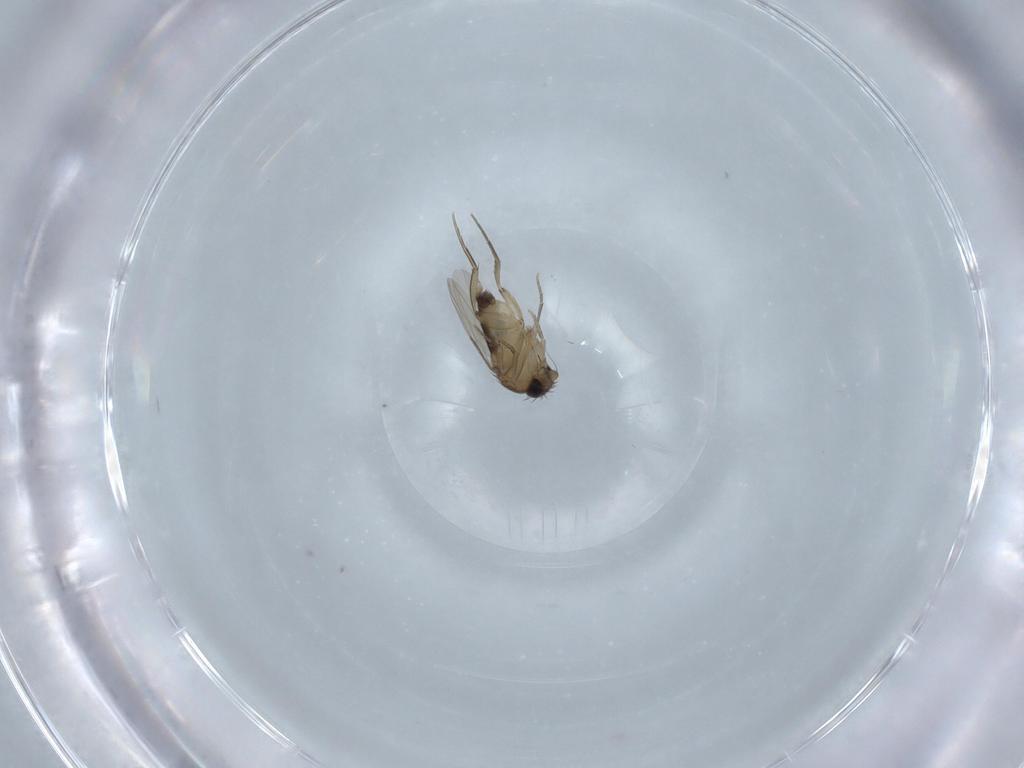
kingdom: Animalia
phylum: Arthropoda
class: Insecta
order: Diptera
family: Phoridae
